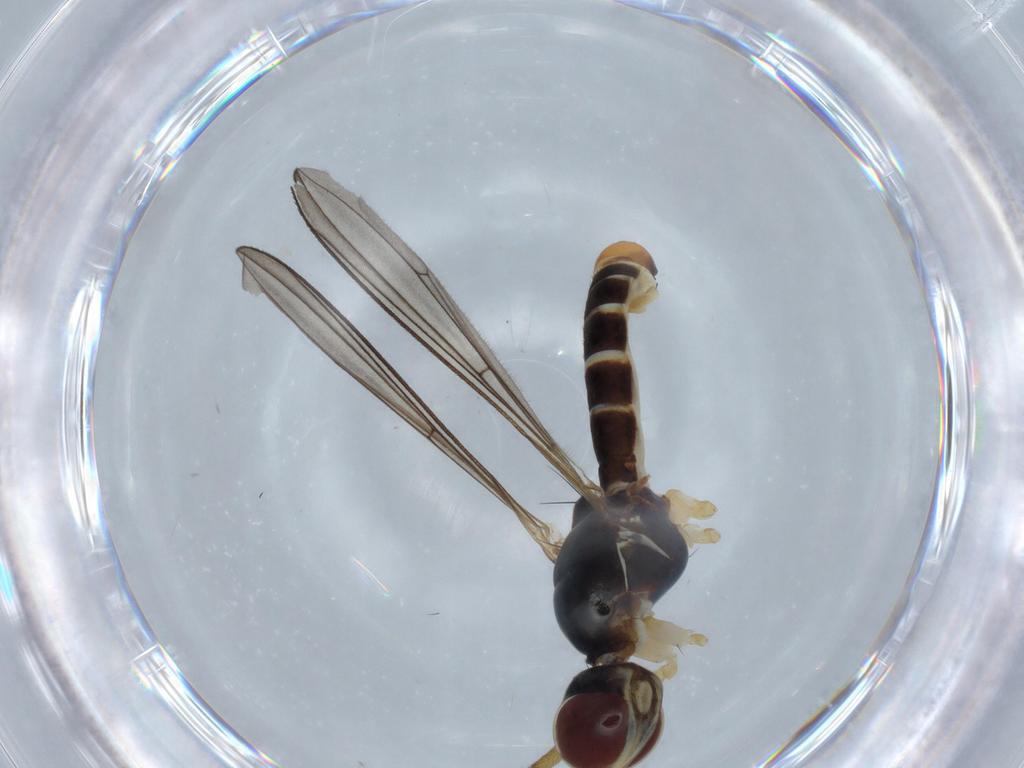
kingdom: Animalia
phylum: Arthropoda
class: Insecta
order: Diptera
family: Micropezidae
